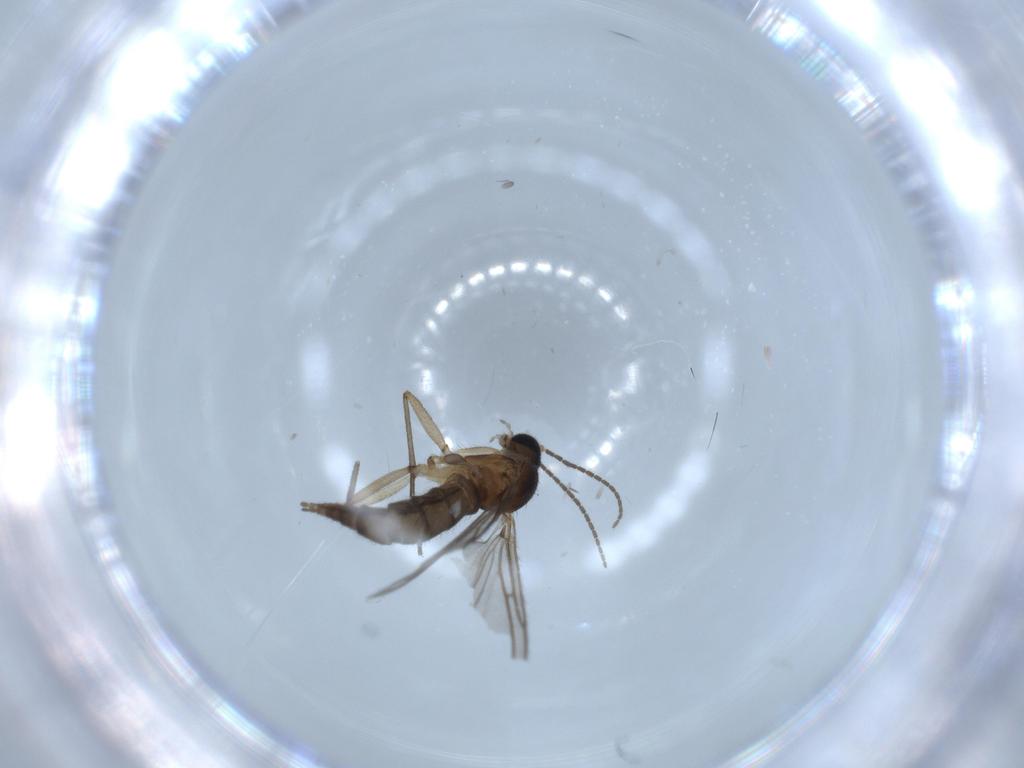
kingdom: Animalia
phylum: Arthropoda
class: Insecta
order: Diptera
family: Sciaridae
